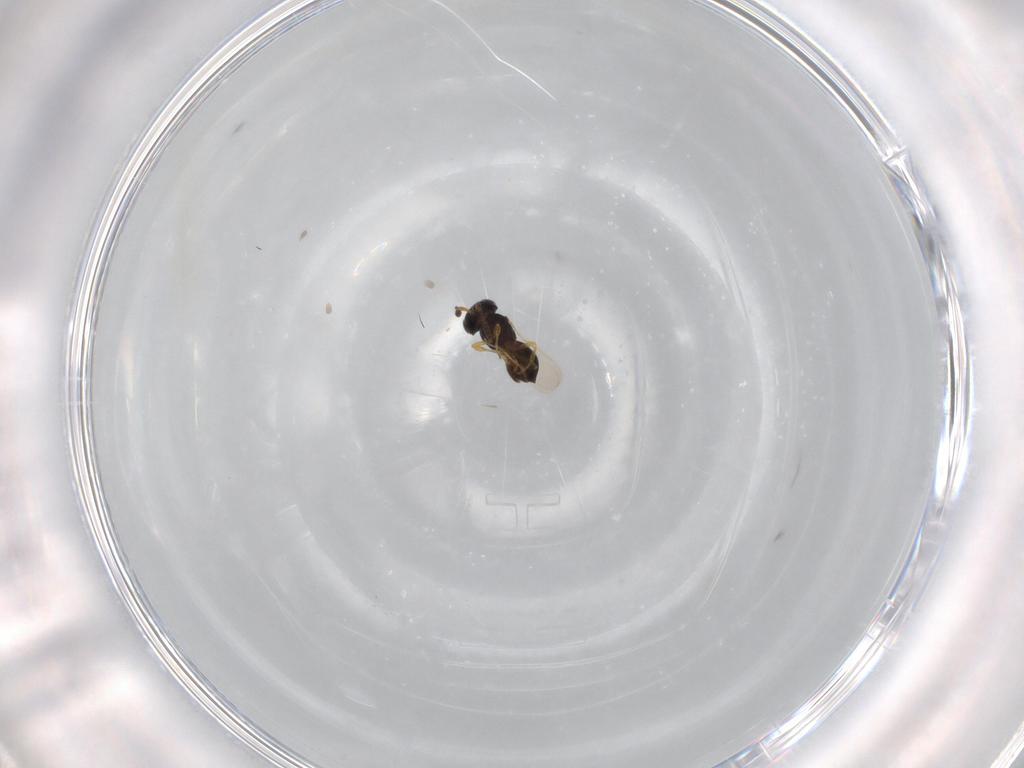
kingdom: Animalia
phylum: Arthropoda
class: Insecta
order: Hymenoptera
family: Scelionidae
